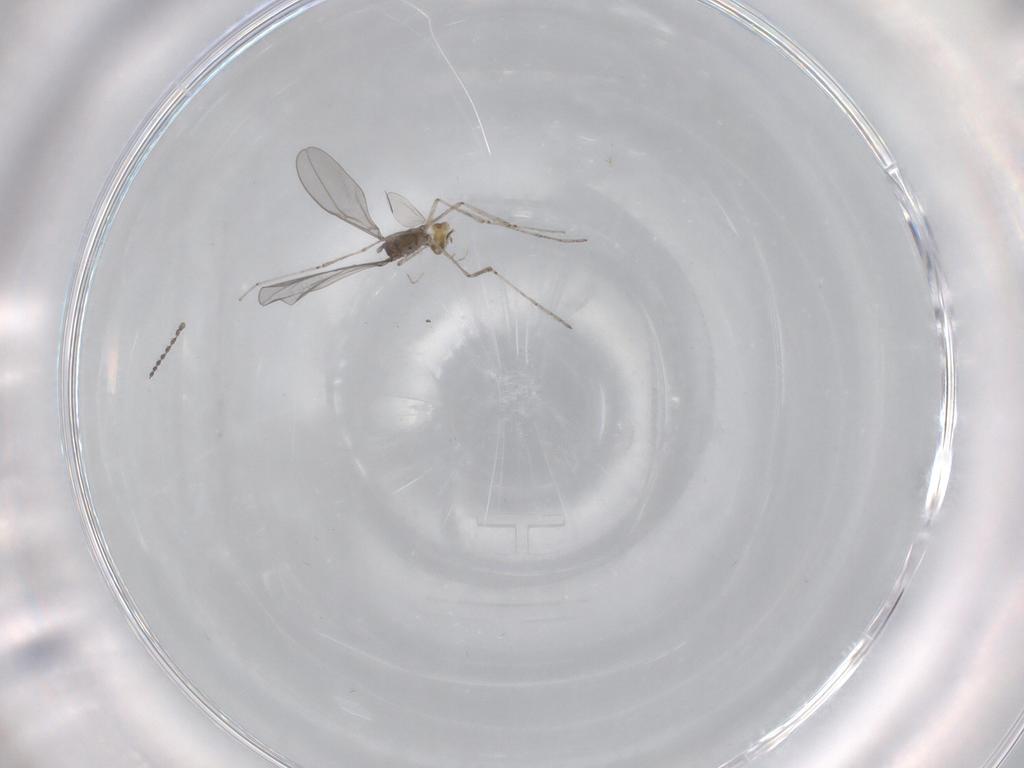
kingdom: Animalia
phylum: Arthropoda
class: Insecta
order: Diptera
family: Cecidomyiidae
